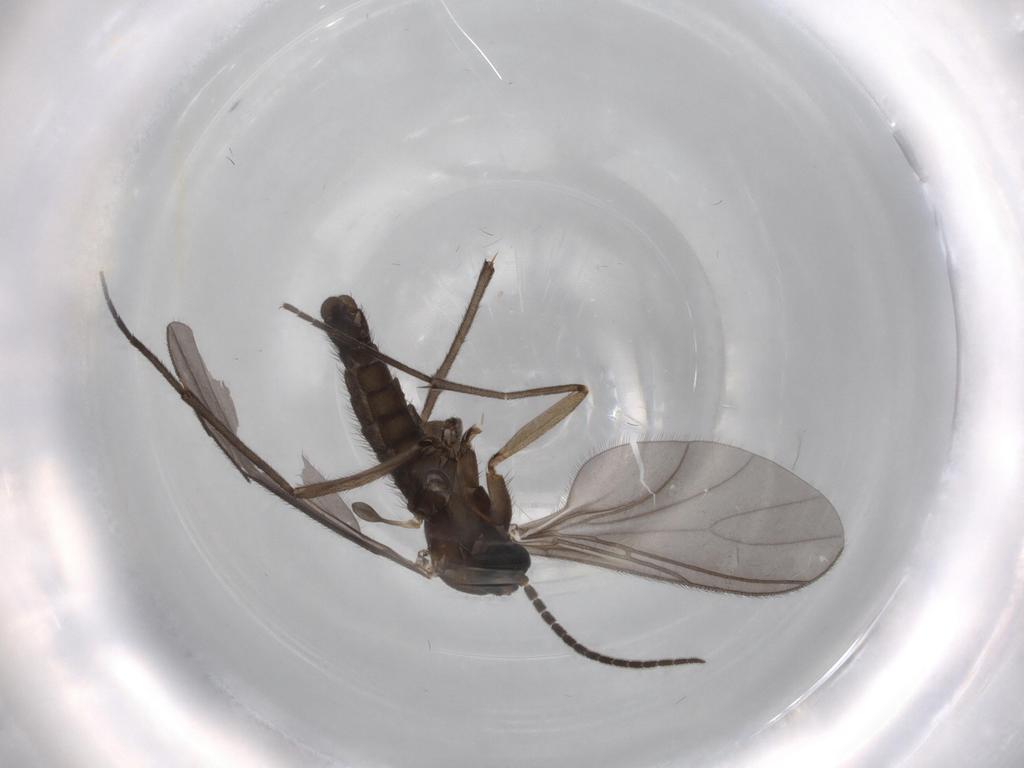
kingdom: Animalia
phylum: Arthropoda
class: Insecta
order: Diptera
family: Sciaridae
